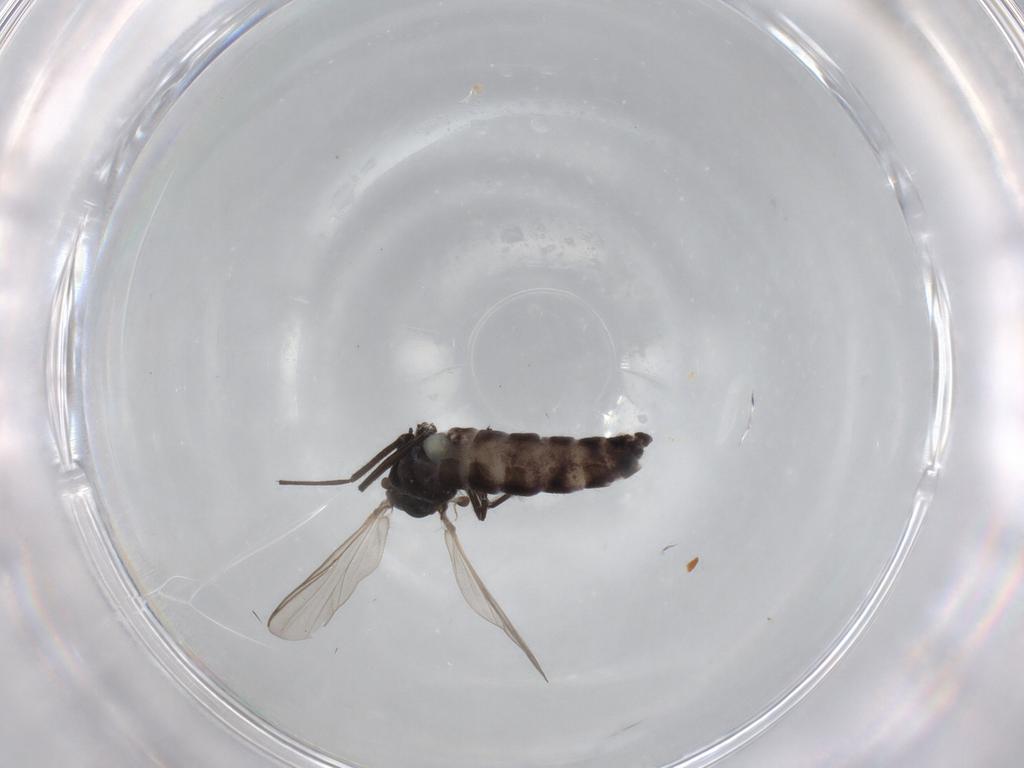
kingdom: Animalia
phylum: Arthropoda
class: Insecta
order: Diptera
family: Chironomidae
